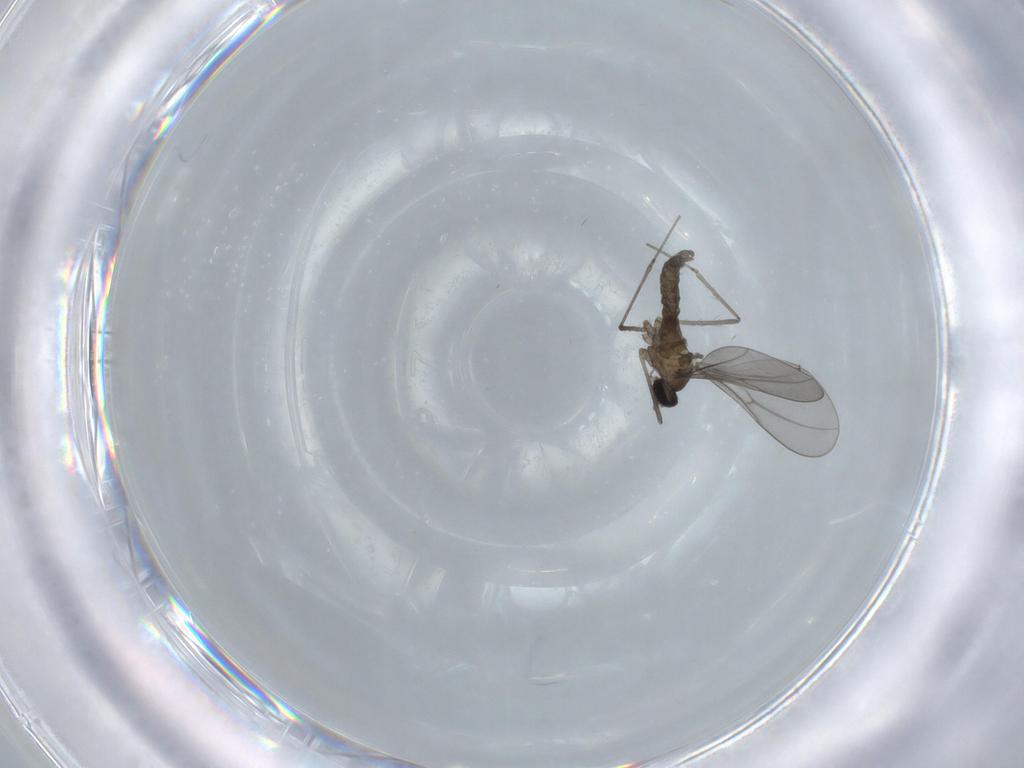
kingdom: Animalia
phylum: Arthropoda
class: Insecta
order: Diptera
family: Cecidomyiidae
